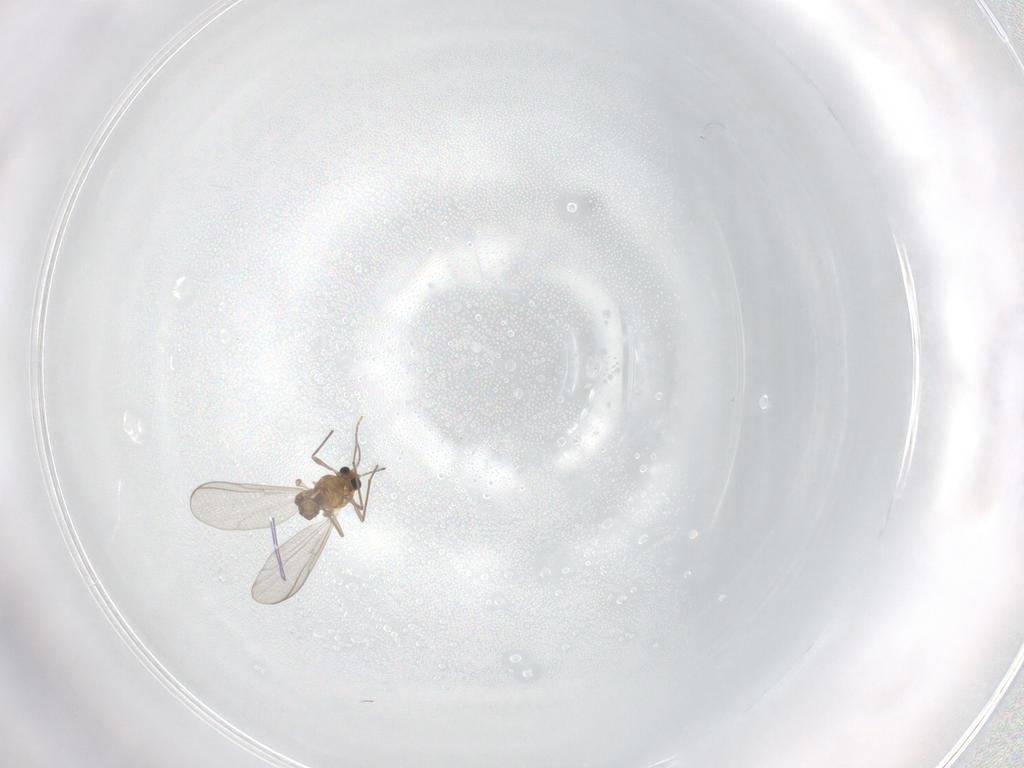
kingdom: Animalia
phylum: Arthropoda
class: Insecta
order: Diptera
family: Chironomidae
